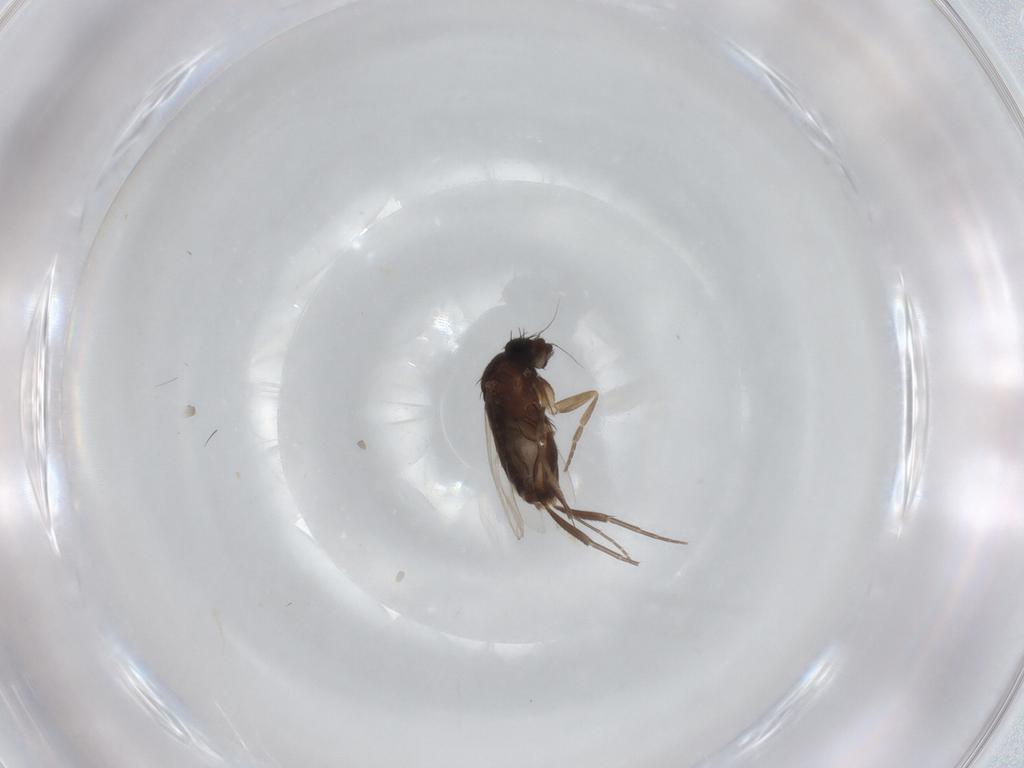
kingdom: Animalia
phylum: Arthropoda
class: Insecta
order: Diptera
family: Phoridae
